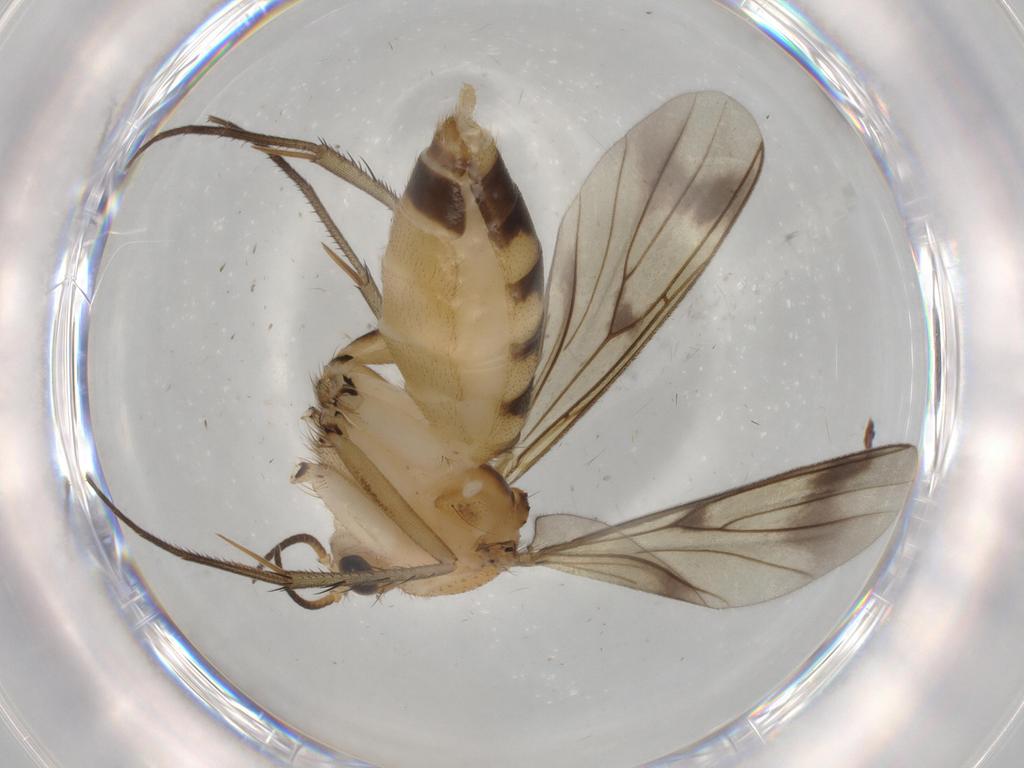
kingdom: Animalia
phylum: Arthropoda
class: Insecta
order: Diptera
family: Mycetophilidae
